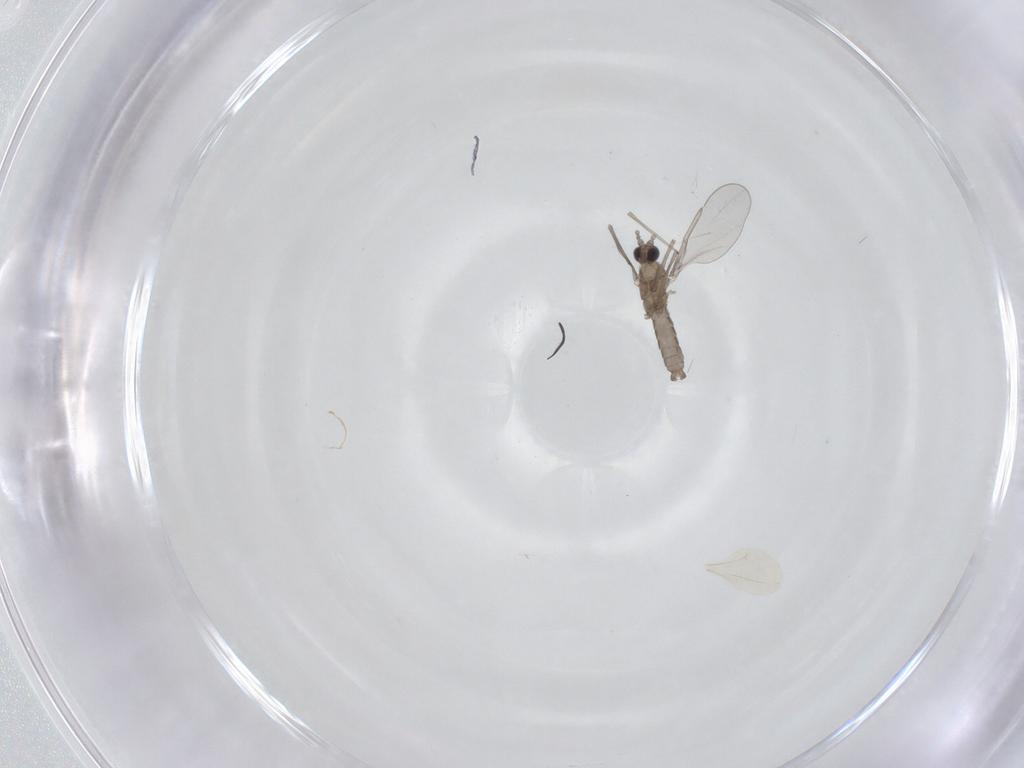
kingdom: Animalia
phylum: Arthropoda
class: Insecta
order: Diptera
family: Cecidomyiidae
